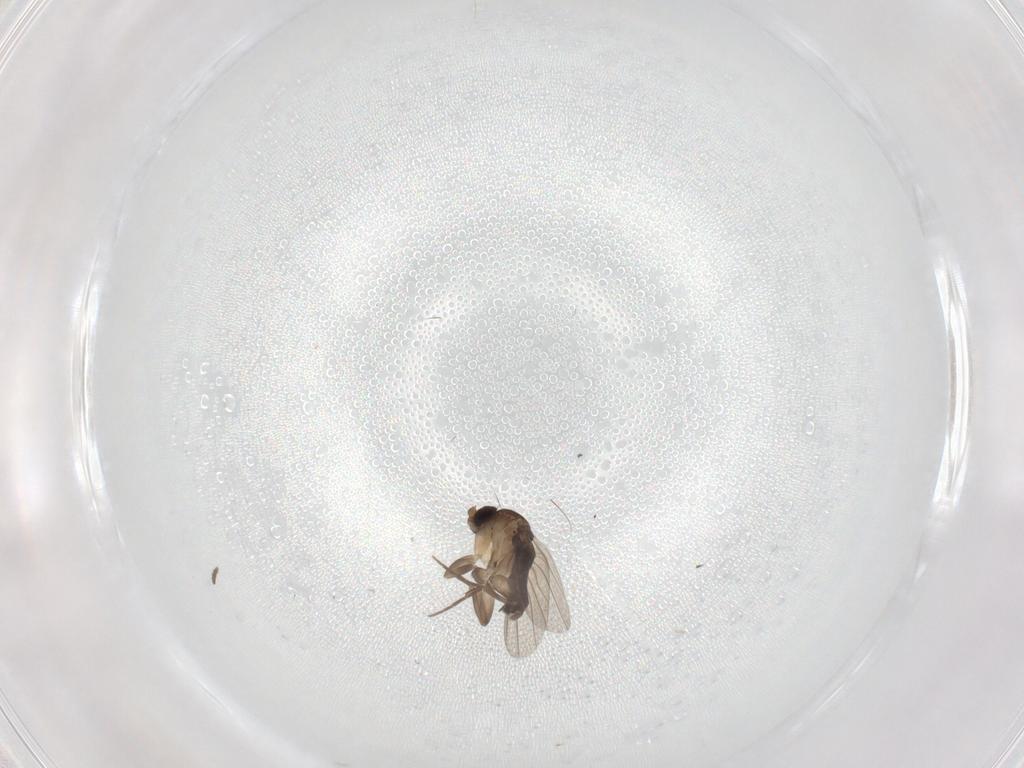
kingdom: Animalia
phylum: Arthropoda
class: Insecta
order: Diptera
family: Phoridae
